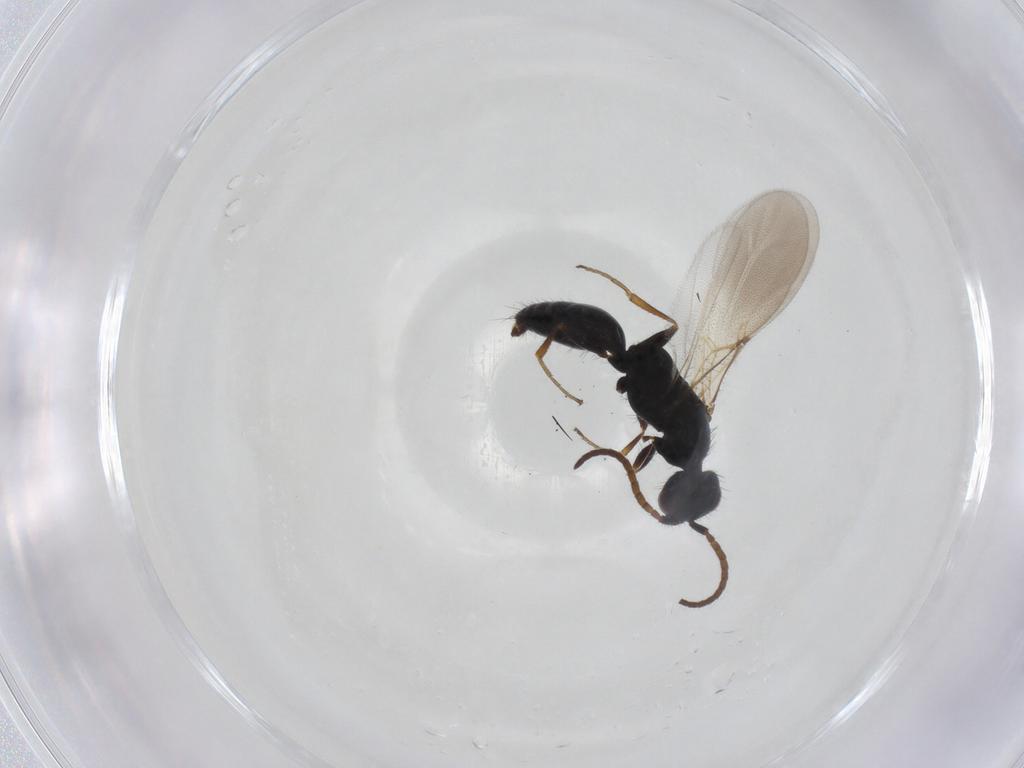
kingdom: Animalia
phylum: Arthropoda
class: Insecta
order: Hymenoptera
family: Bethylidae
